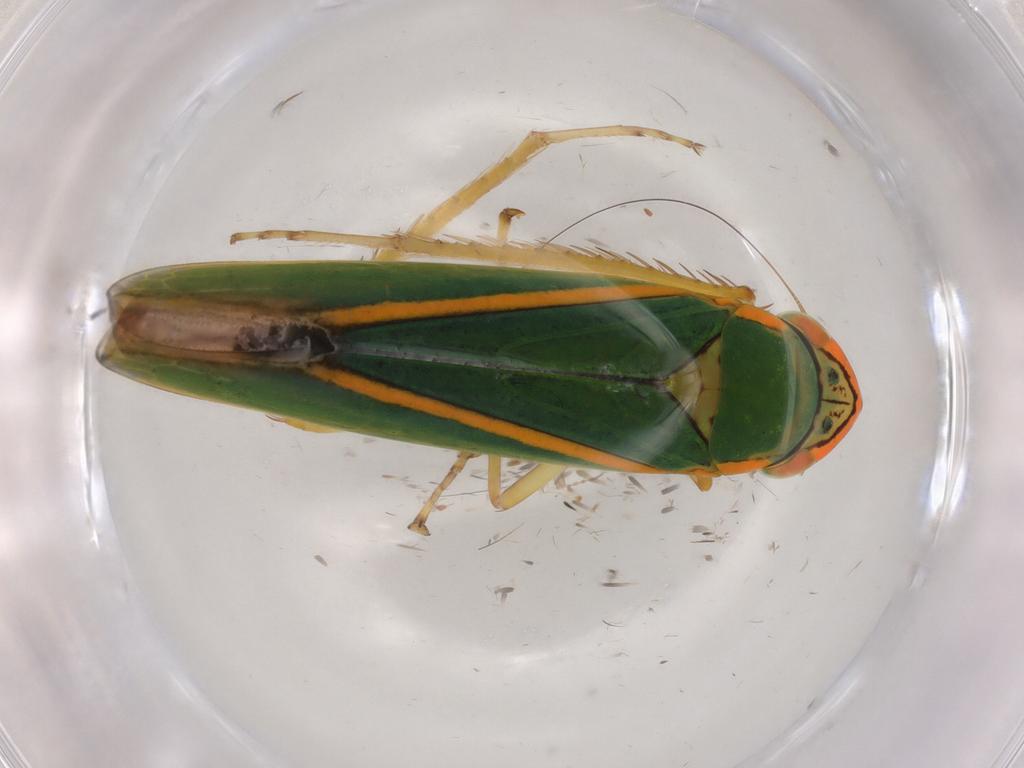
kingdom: Animalia
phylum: Arthropoda
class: Insecta
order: Hemiptera
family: Cicadellidae
